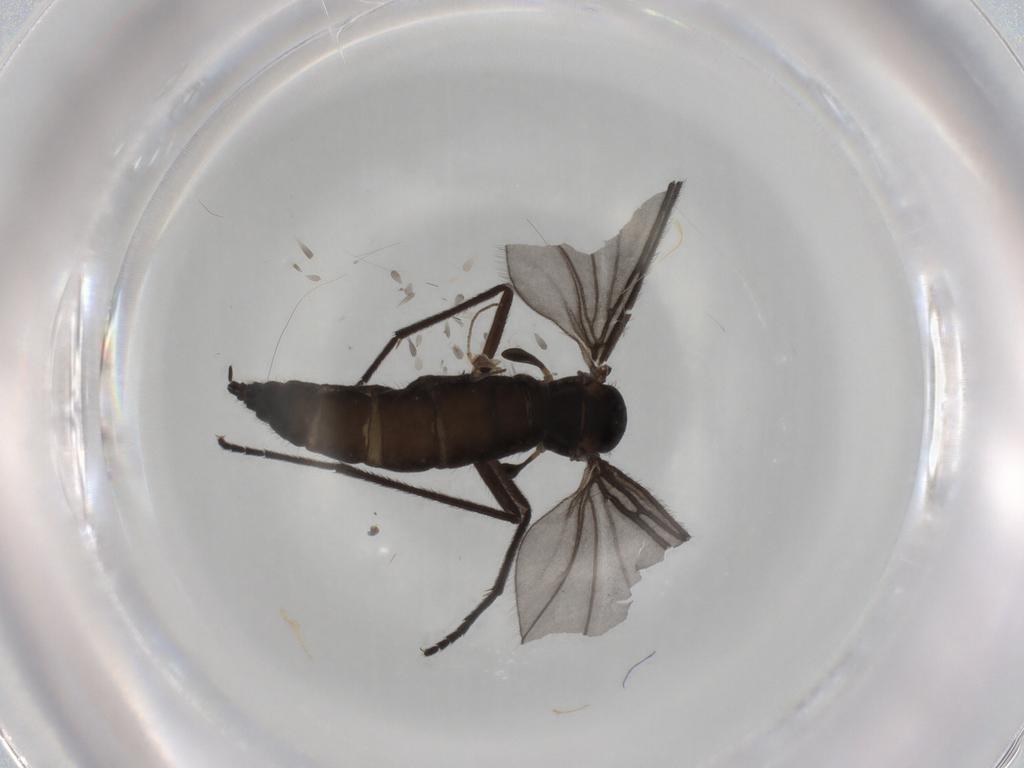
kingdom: Animalia
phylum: Arthropoda
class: Insecta
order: Diptera
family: Sciaridae
